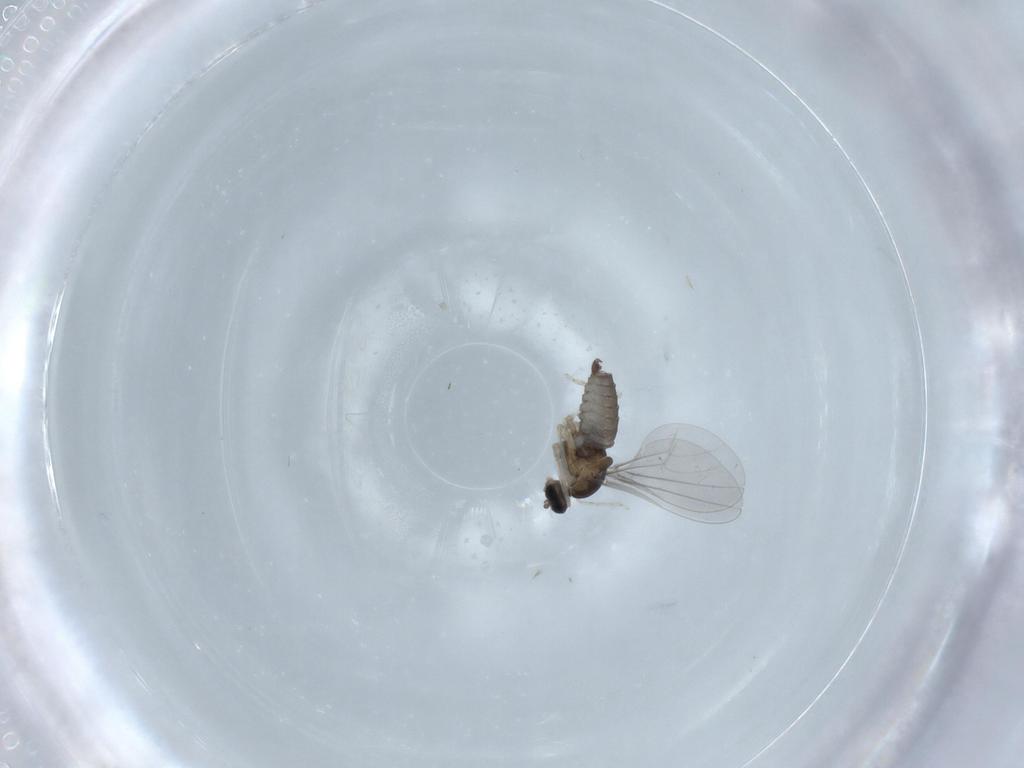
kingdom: Animalia
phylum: Arthropoda
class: Insecta
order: Diptera
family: Cecidomyiidae
